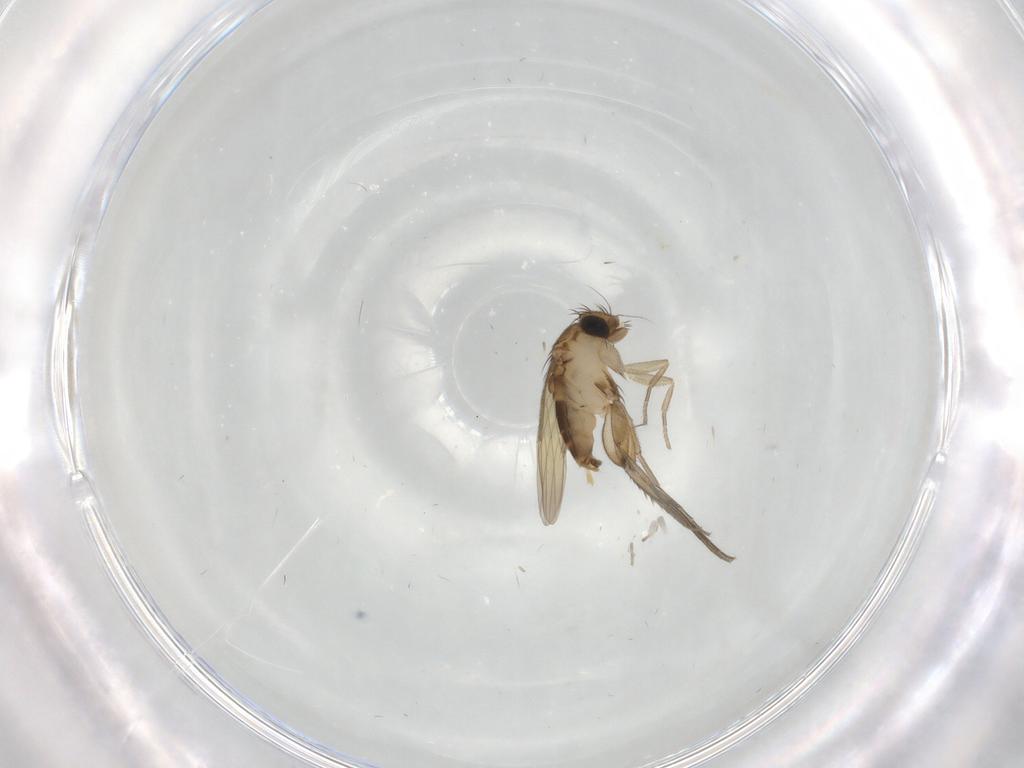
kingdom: Animalia
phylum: Arthropoda
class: Insecta
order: Diptera
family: Phoridae
